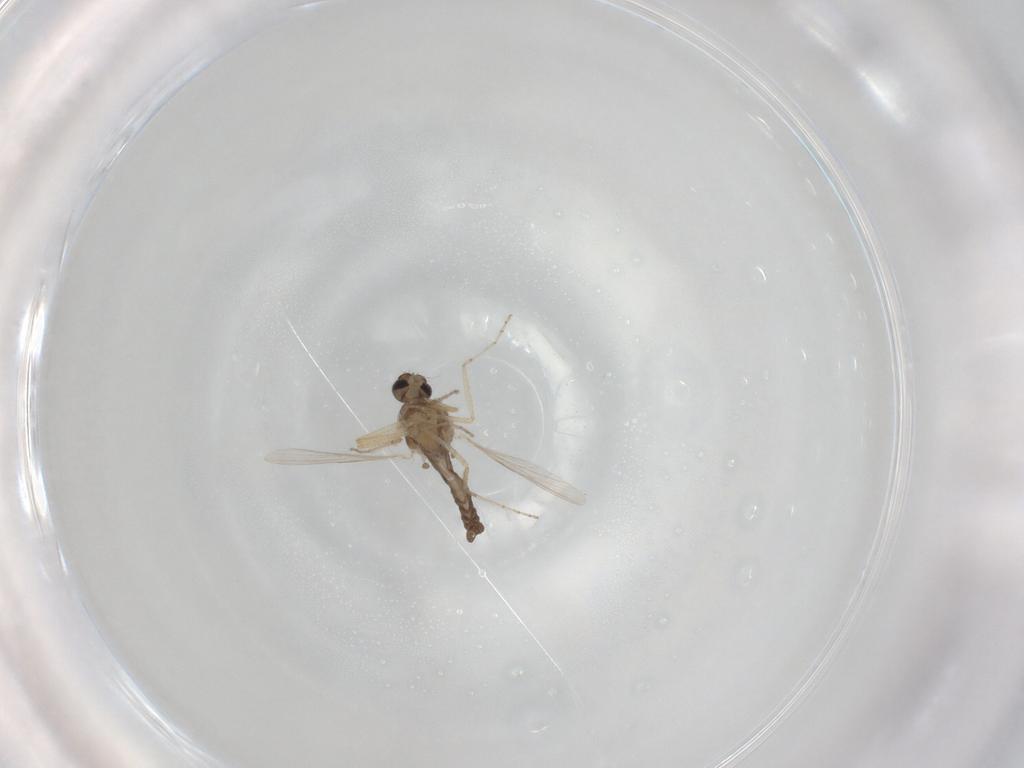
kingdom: Animalia
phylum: Arthropoda
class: Insecta
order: Diptera
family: Ceratopogonidae
